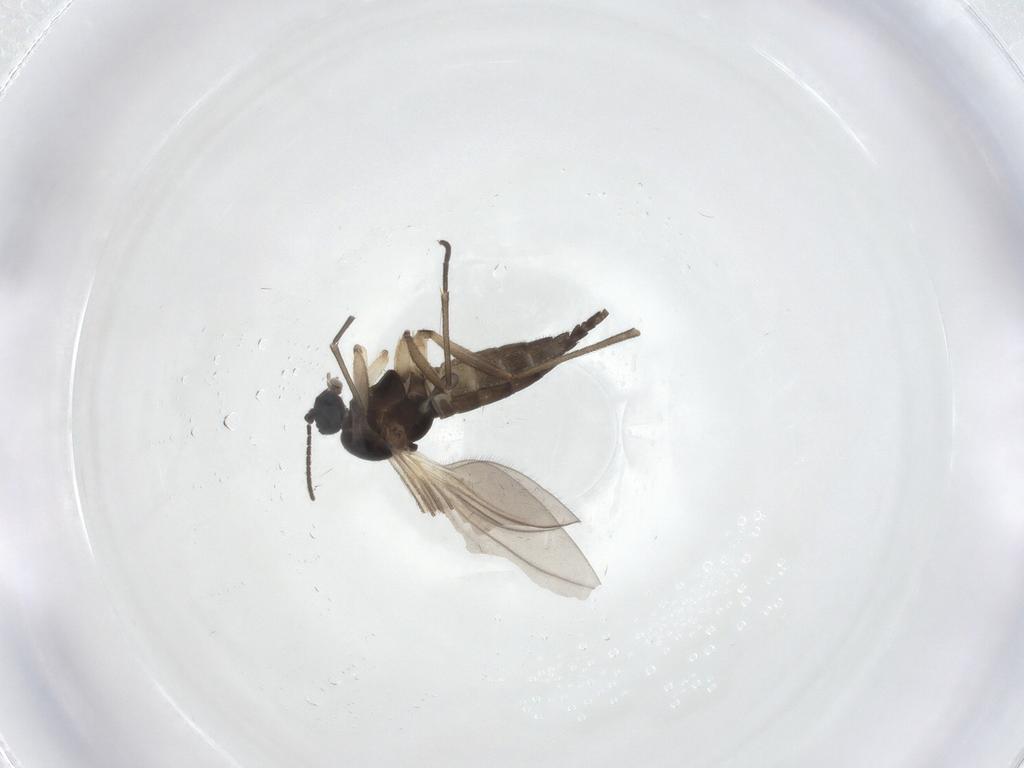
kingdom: Animalia
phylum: Arthropoda
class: Insecta
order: Diptera
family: Sciaridae
